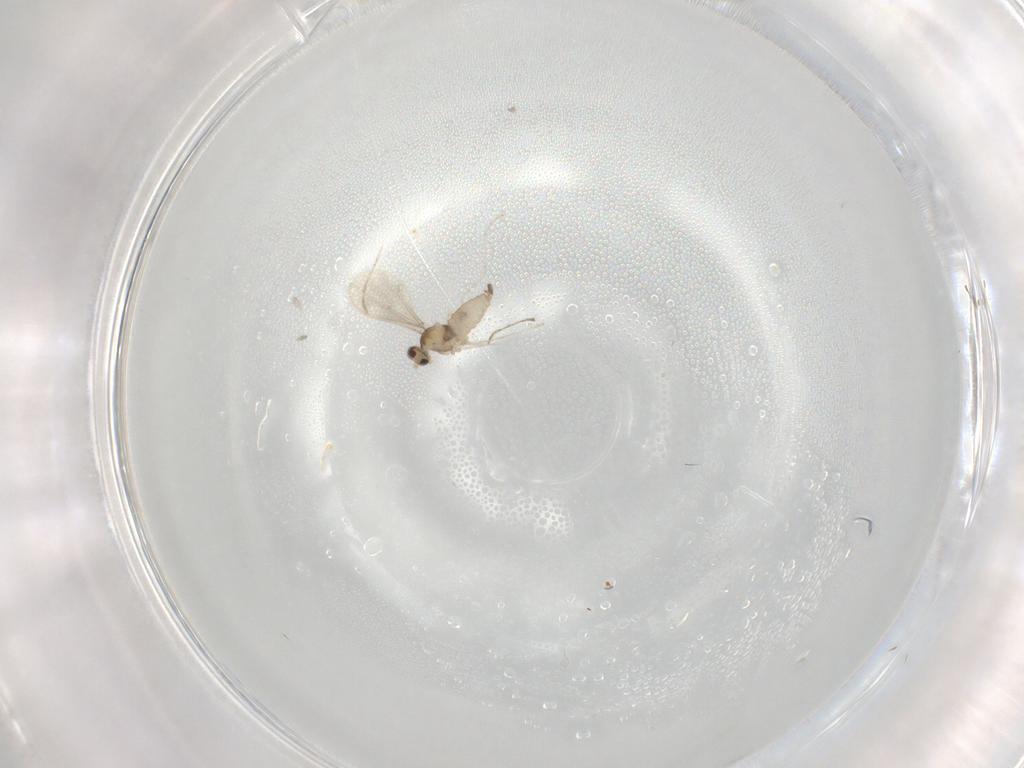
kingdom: Animalia
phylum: Arthropoda
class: Insecta
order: Diptera
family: Cecidomyiidae
